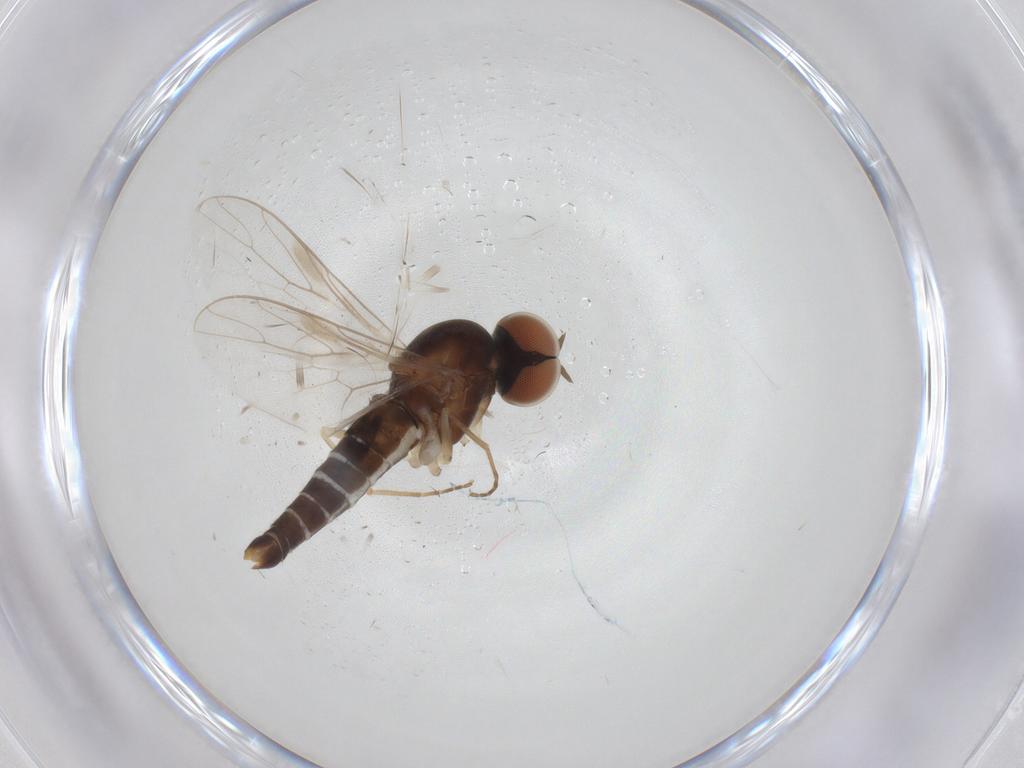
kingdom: Animalia
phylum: Arthropoda
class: Insecta
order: Diptera
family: Scenopinidae
